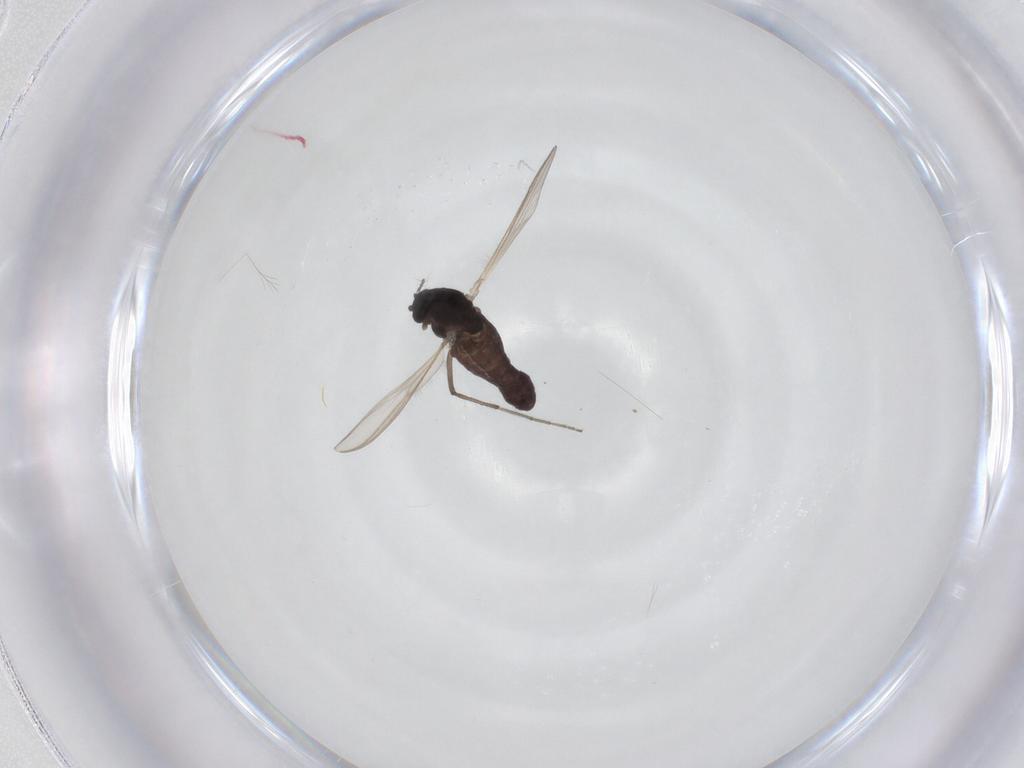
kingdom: Animalia
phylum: Arthropoda
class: Insecta
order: Diptera
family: Chironomidae
